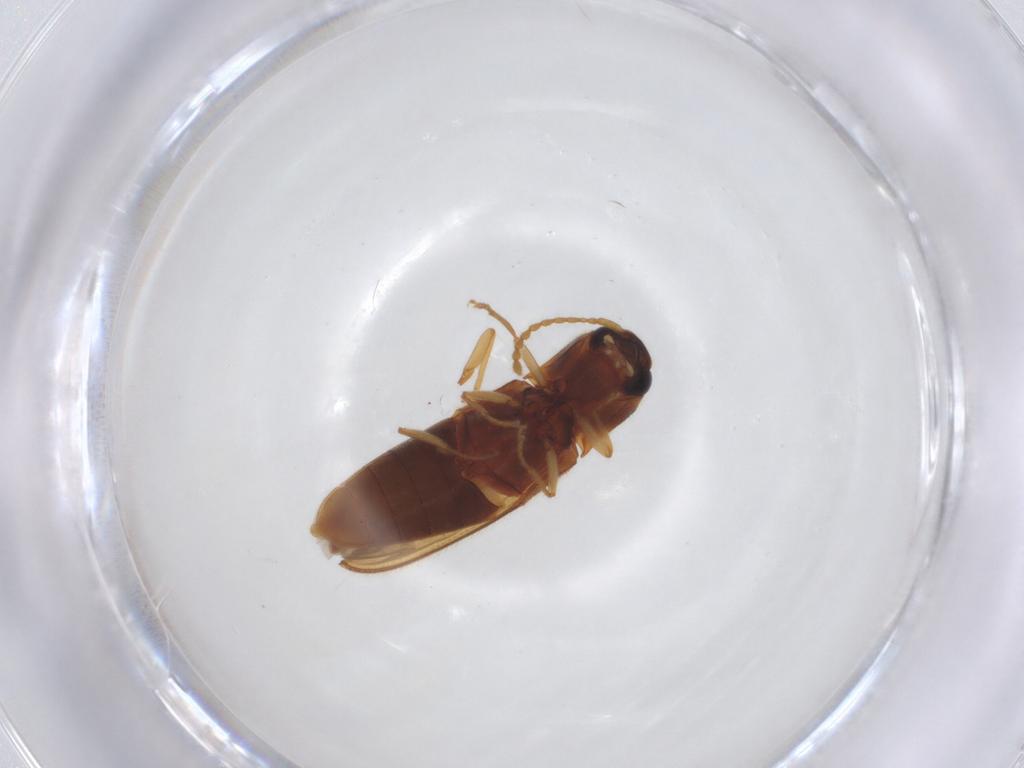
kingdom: Animalia
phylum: Arthropoda
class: Insecta
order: Coleoptera
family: Elateridae
